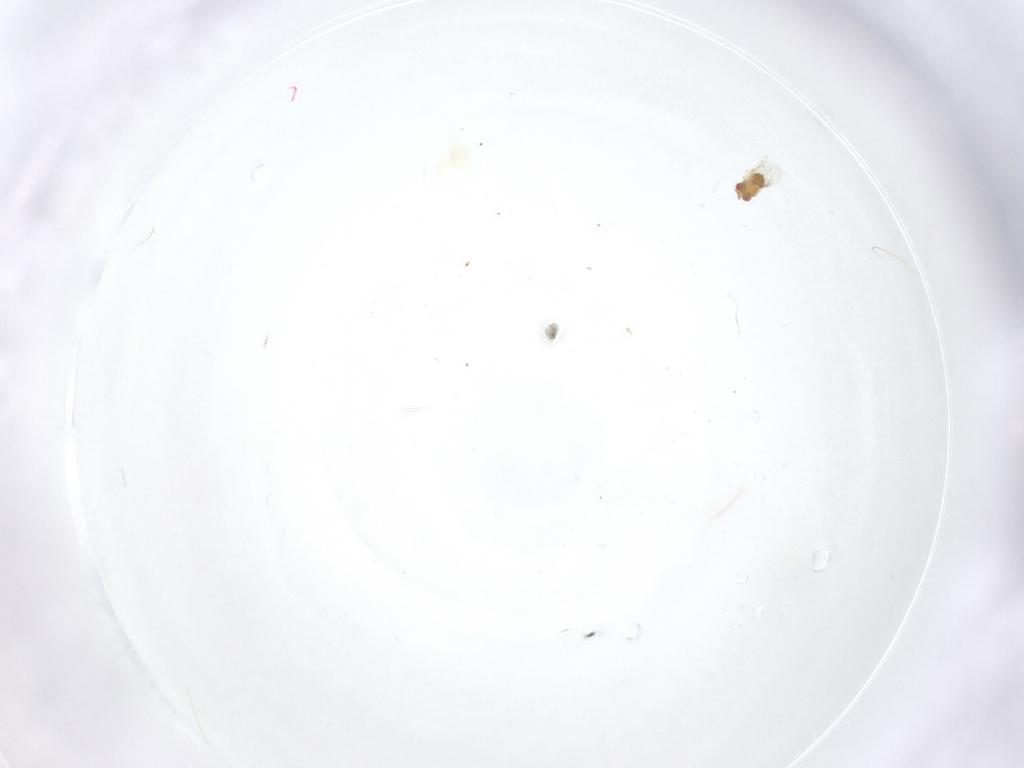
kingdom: Animalia
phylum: Arthropoda
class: Insecta
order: Hymenoptera
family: Trichogrammatidae
